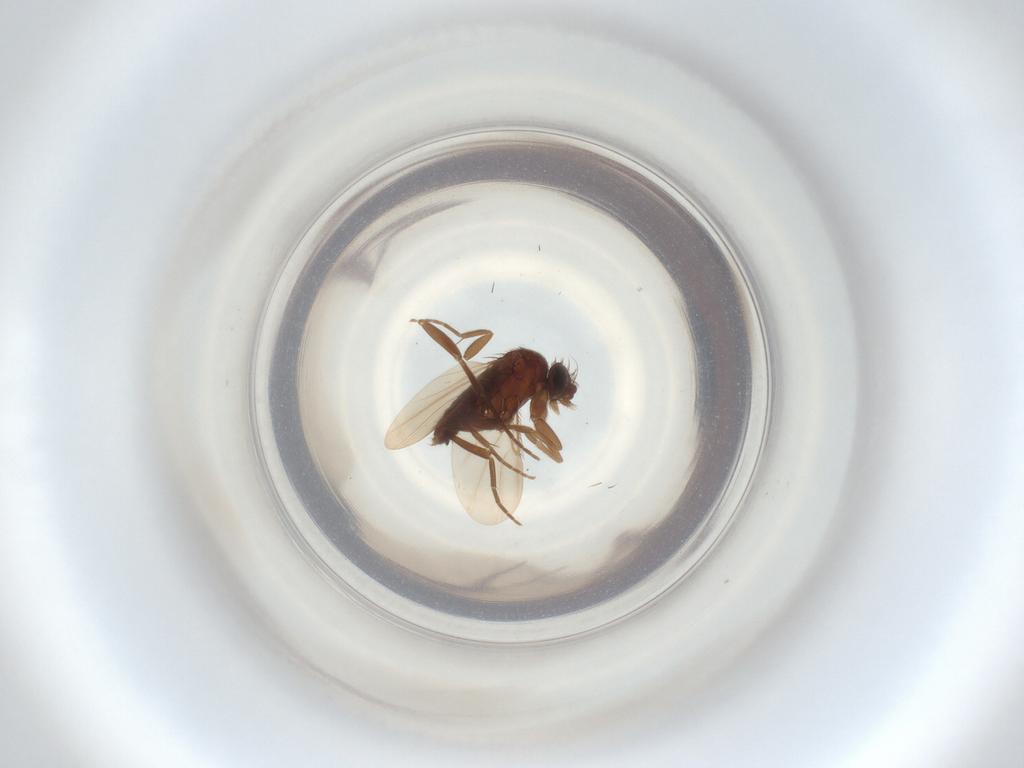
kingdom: Animalia
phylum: Arthropoda
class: Insecta
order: Diptera
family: Phoridae
